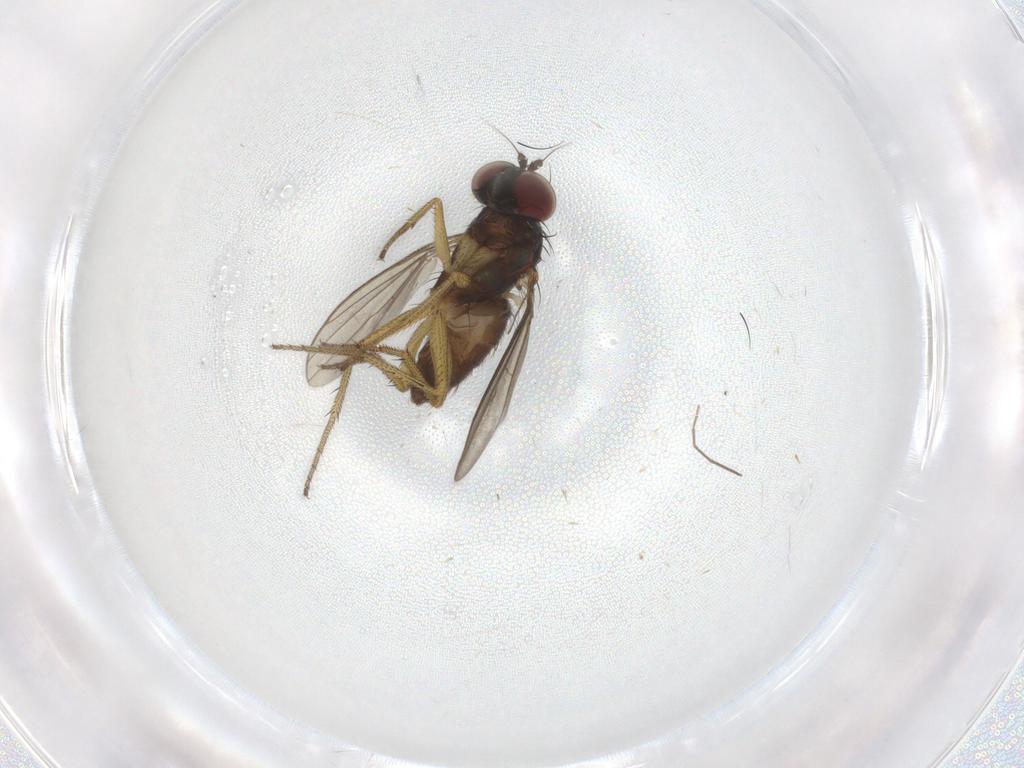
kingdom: Animalia
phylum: Arthropoda
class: Insecta
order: Diptera
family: Dolichopodidae
